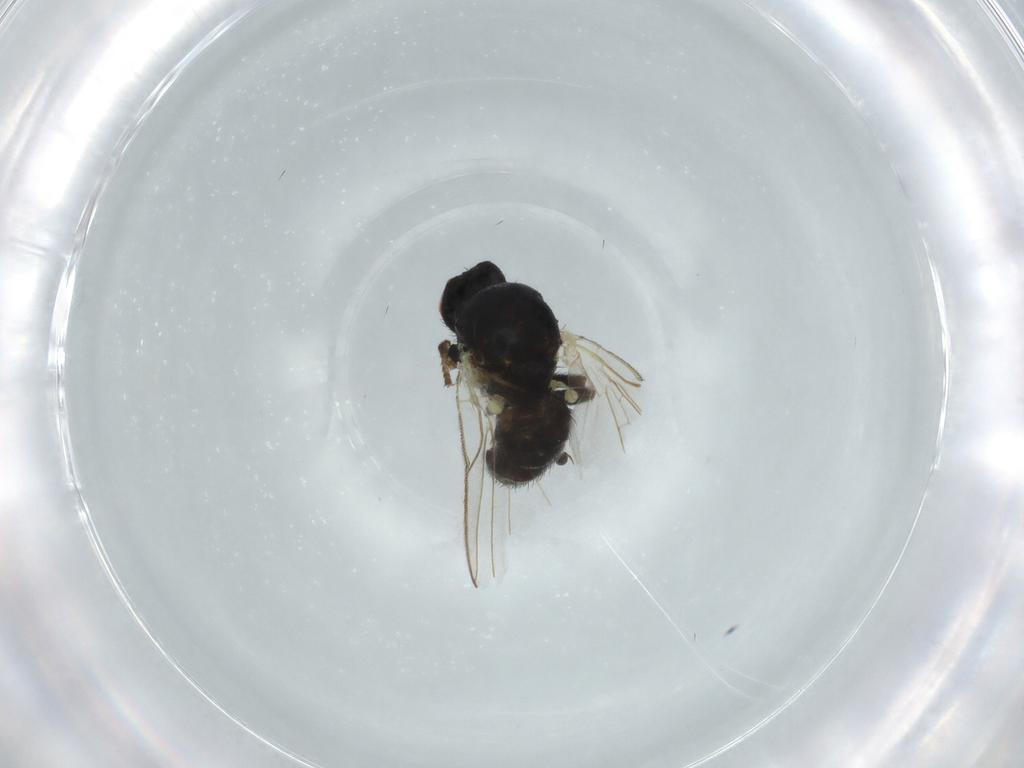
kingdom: Animalia
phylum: Arthropoda
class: Insecta
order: Diptera
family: Agromyzidae
